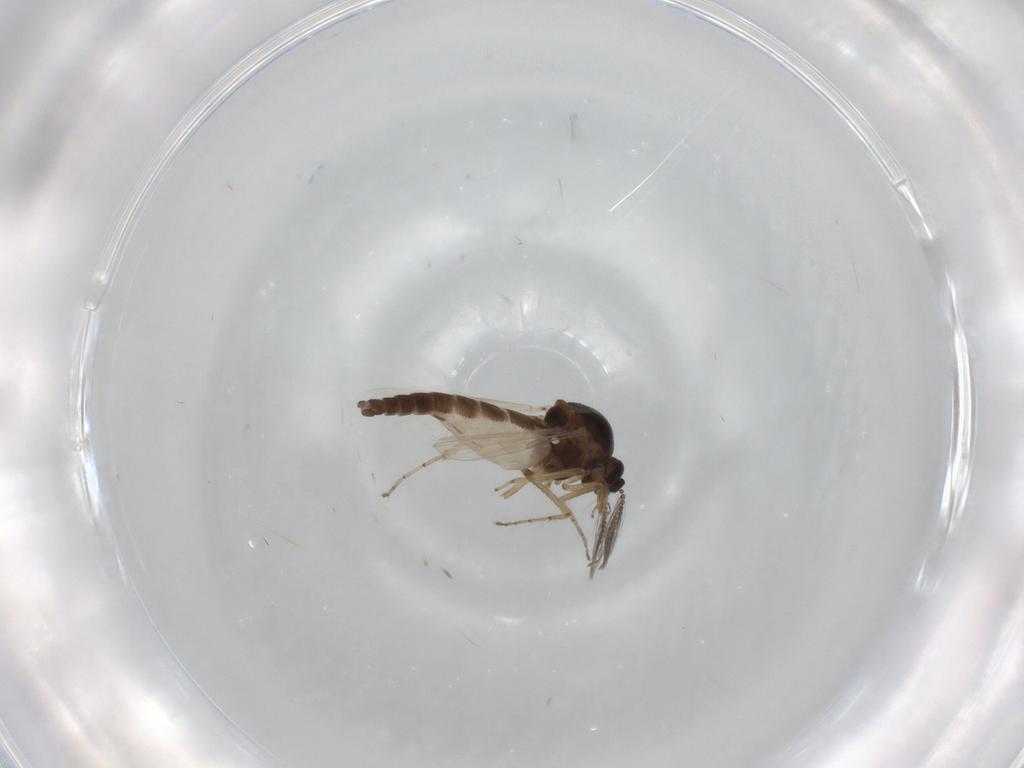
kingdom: Animalia
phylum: Arthropoda
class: Insecta
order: Diptera
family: Ceratopogonidae
